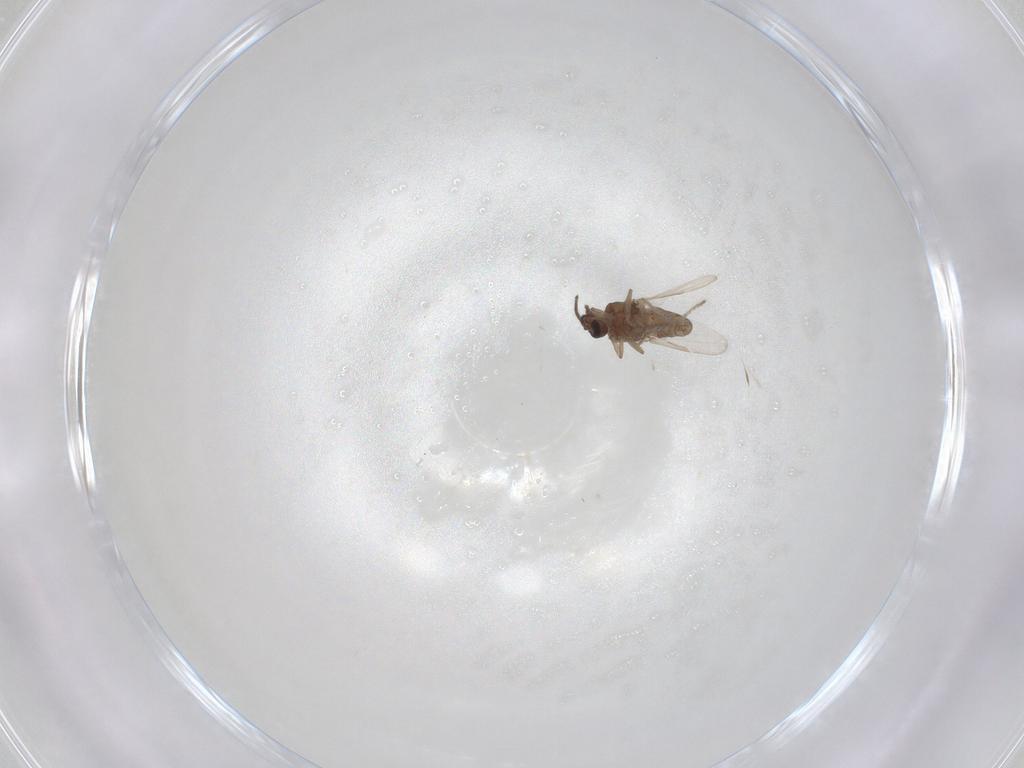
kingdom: Animalia
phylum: Arthropoda
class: Insecta
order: Diptera
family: Cecidomyiidae
